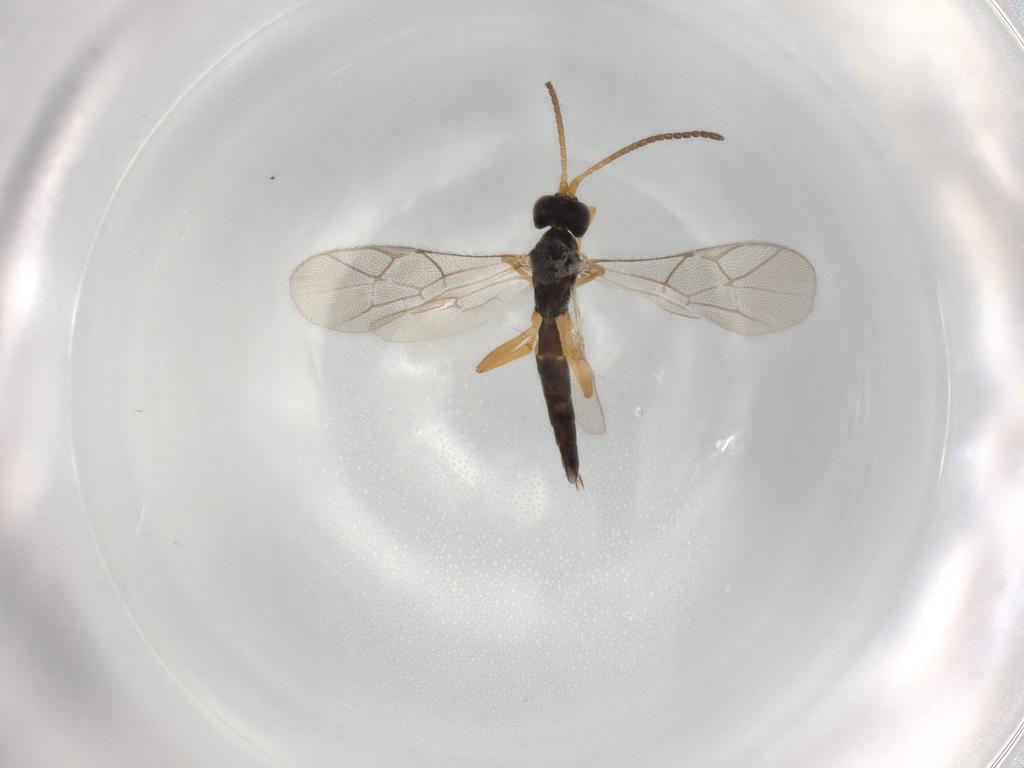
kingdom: Animalia
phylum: Arthropoda
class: Insecta
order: Hymenoptera
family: Ichneumonidae
